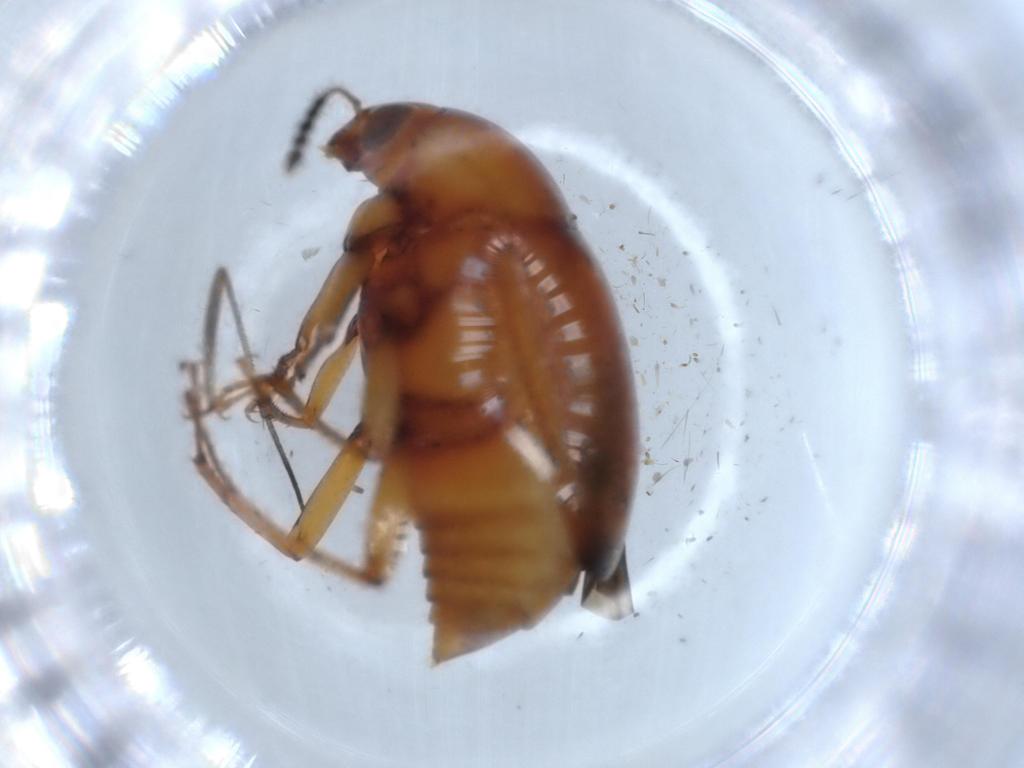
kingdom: Animalia
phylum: Arthropoda
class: Insecta
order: Coleoptera
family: Staphylinidae
